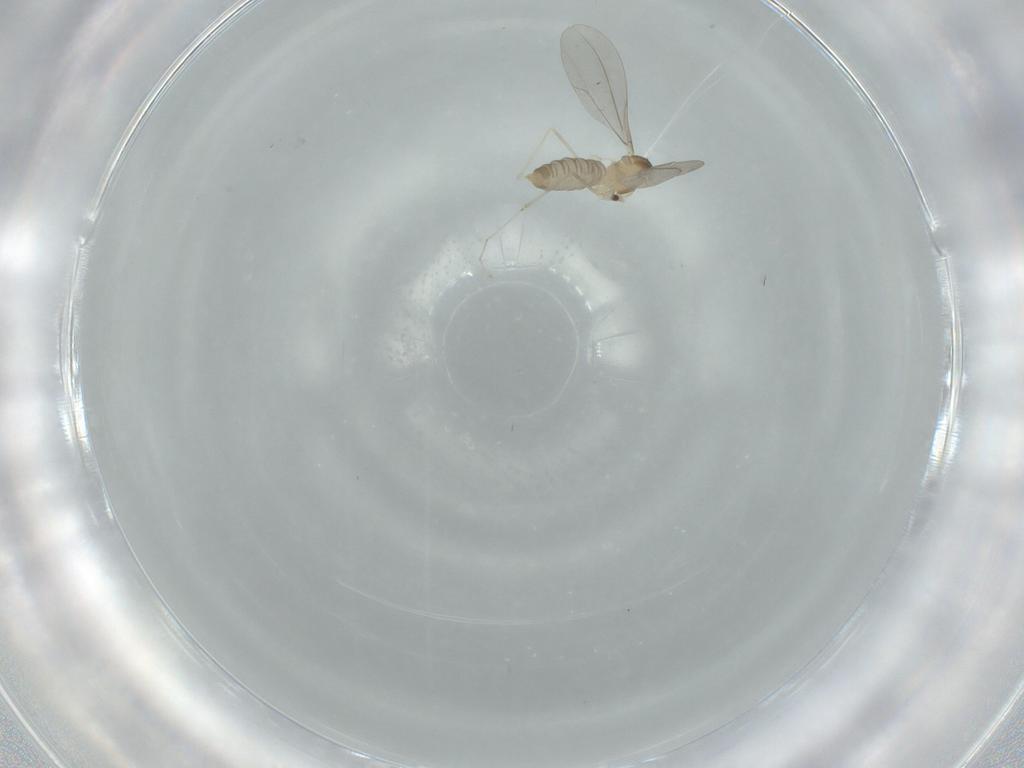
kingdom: Animalia
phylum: Arthropoda
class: Insecta
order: Diptera
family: Cecidomyiidae
